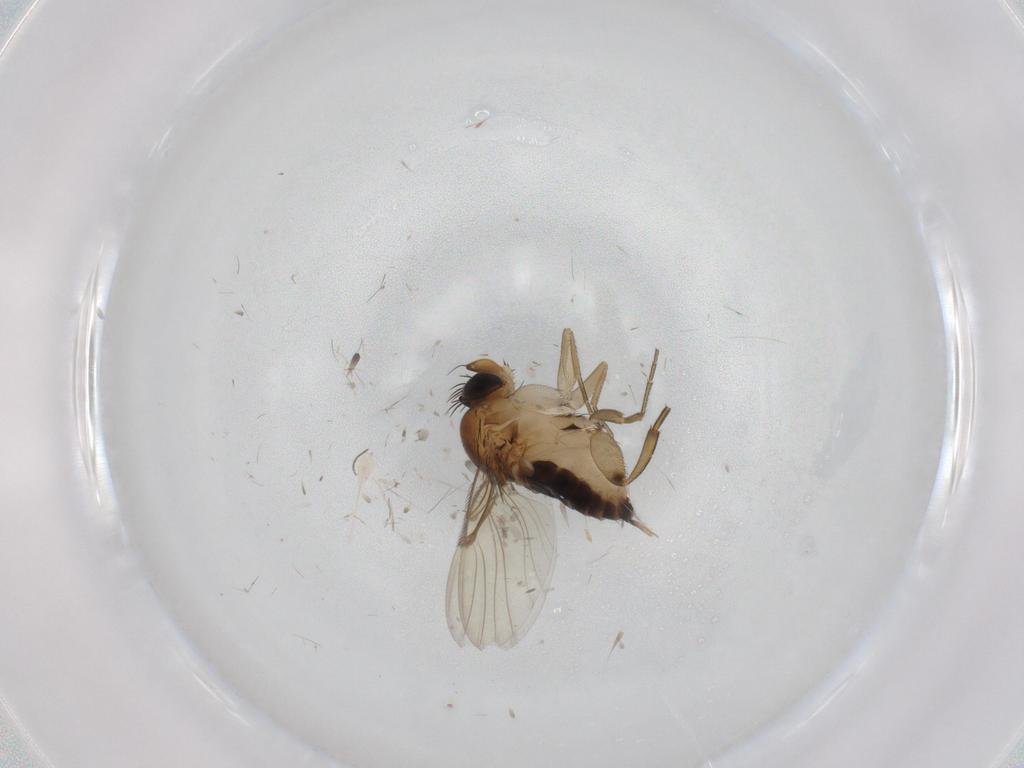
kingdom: Animalia
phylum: Arthropoda
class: Insecta
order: Diptera
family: Chironomidae
